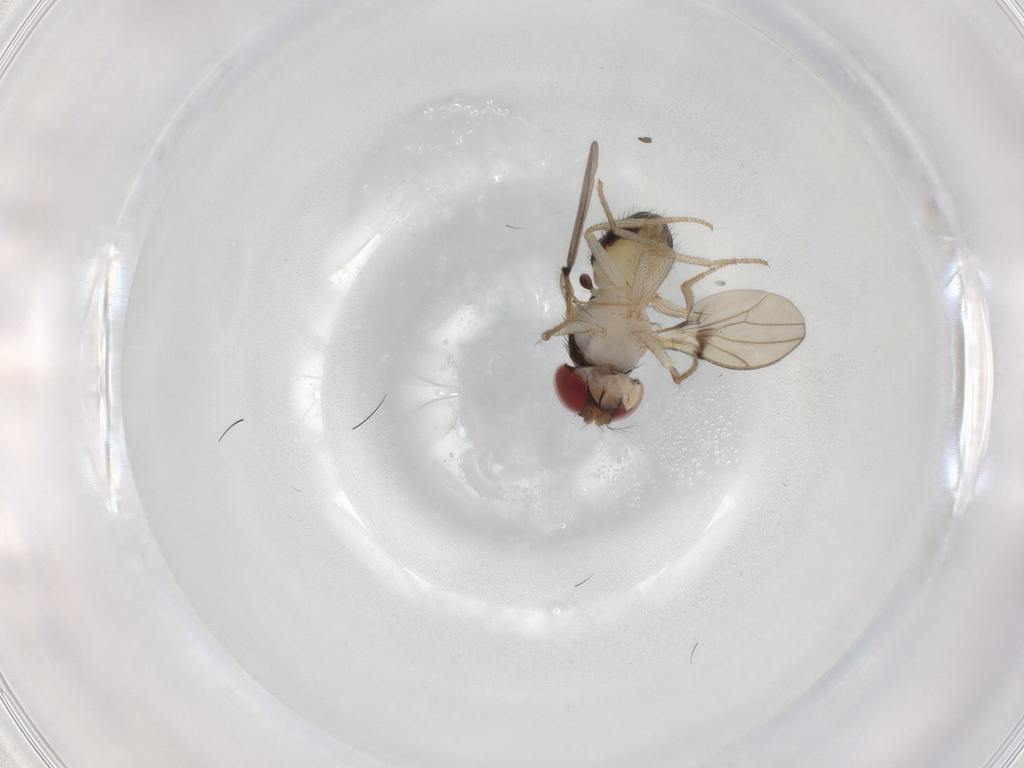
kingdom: Animalia
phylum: Arthropoda
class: Insecta
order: Diptera
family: Drosophilidae
